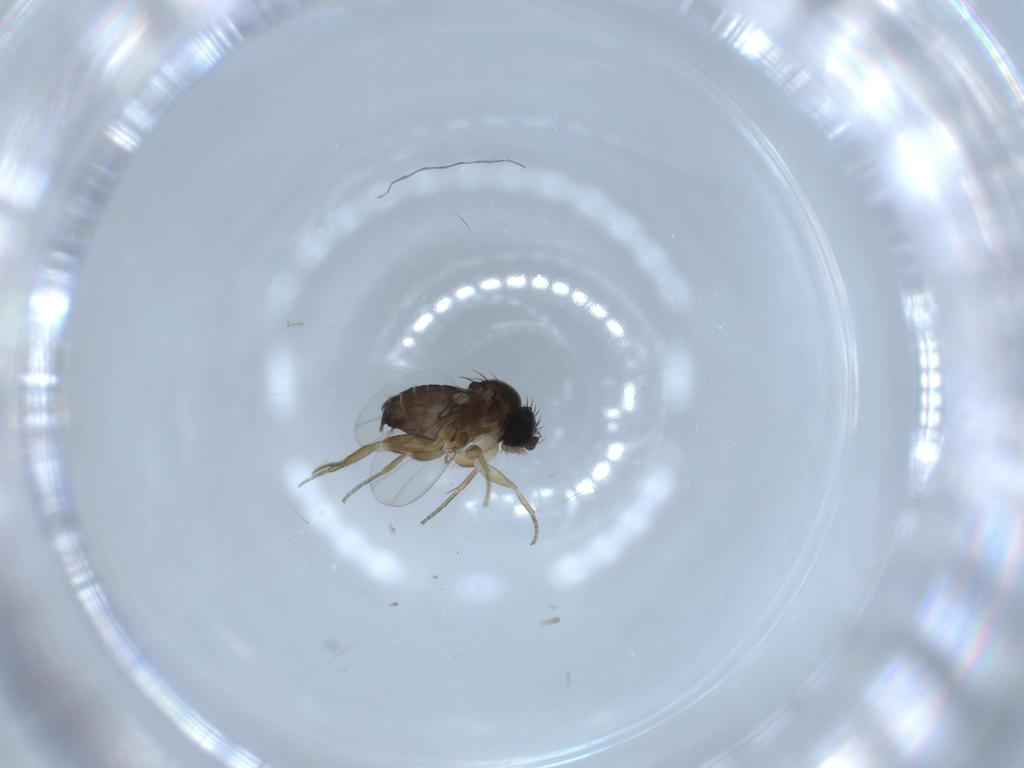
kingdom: Animalia
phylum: Arthropoda
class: Insecta
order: Diptera
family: Phoridae
